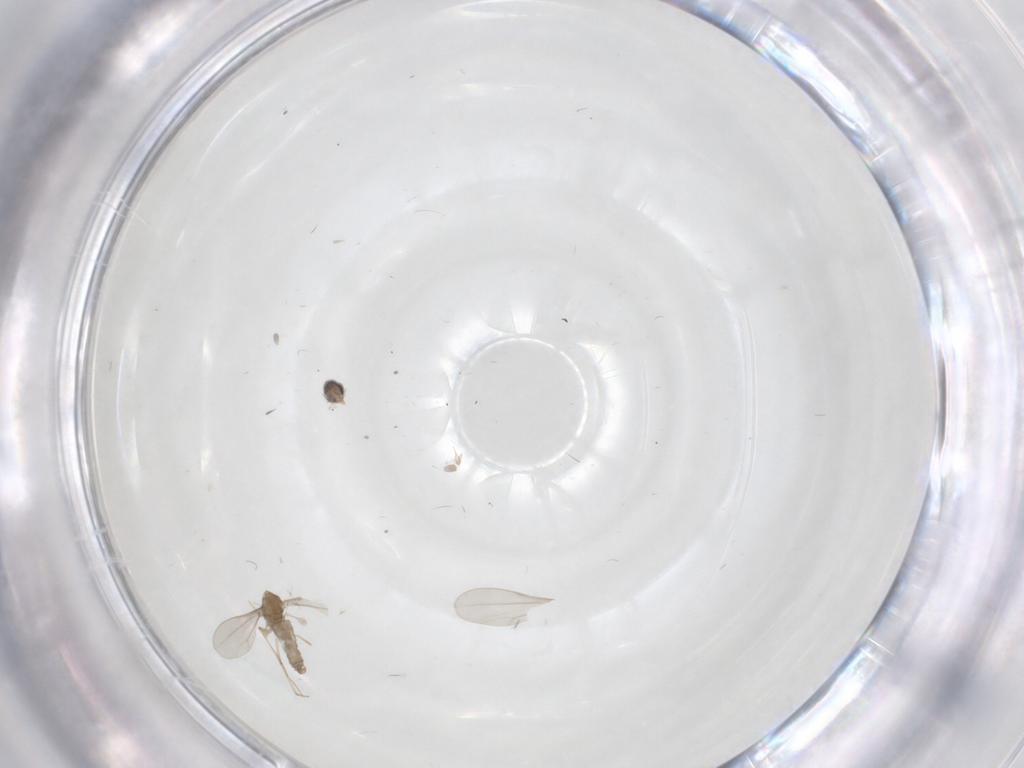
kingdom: Animalia
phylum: Arthropoda
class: Insecta
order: Diptera
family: Cecidomyiidae
